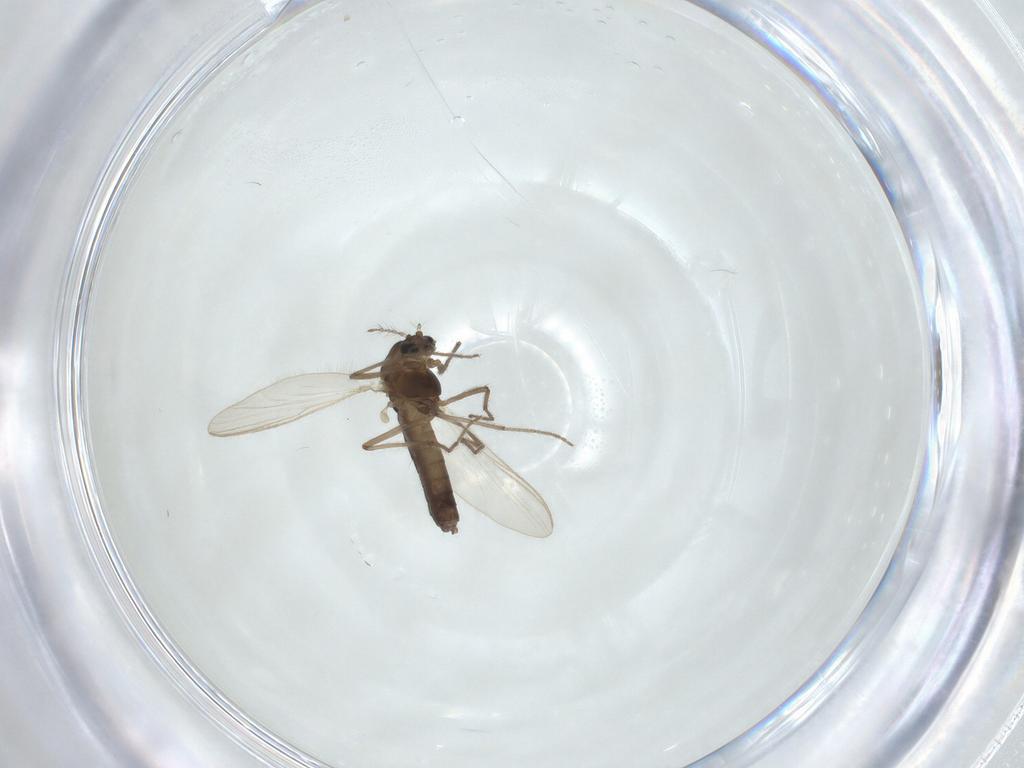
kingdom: Animalia
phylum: Arthropoda
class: Insecta
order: Diptera
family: Chironomidae
